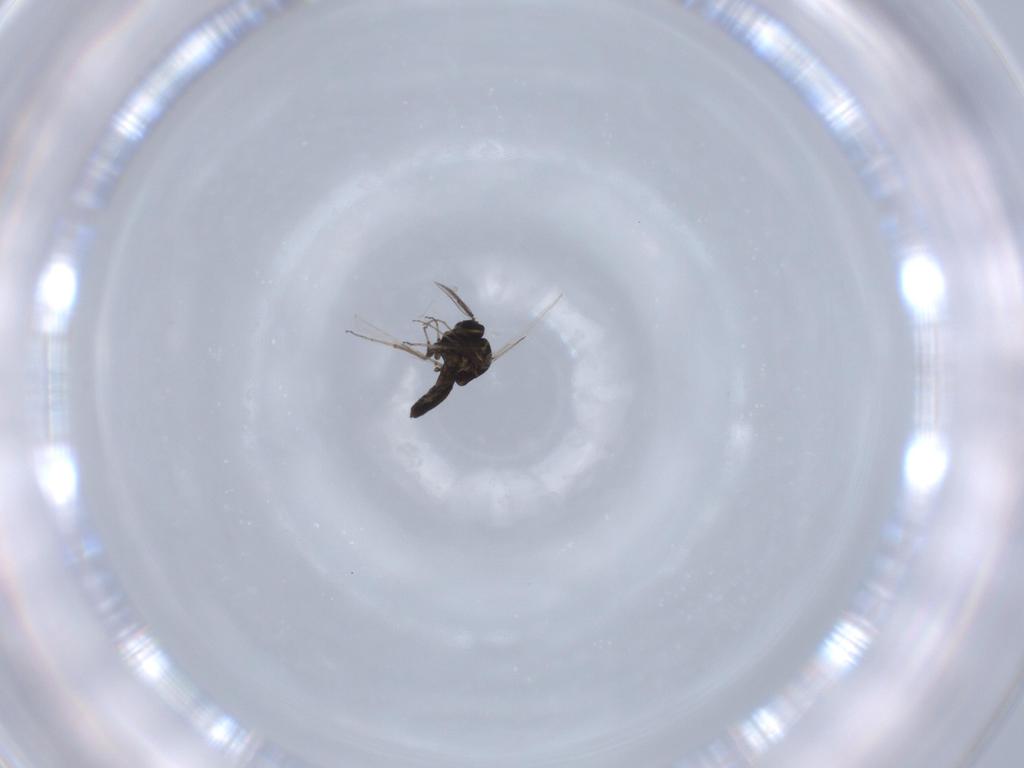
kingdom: Animalia
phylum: Arthropoda
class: Insecta
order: Diptera
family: Ceratopogonidae
